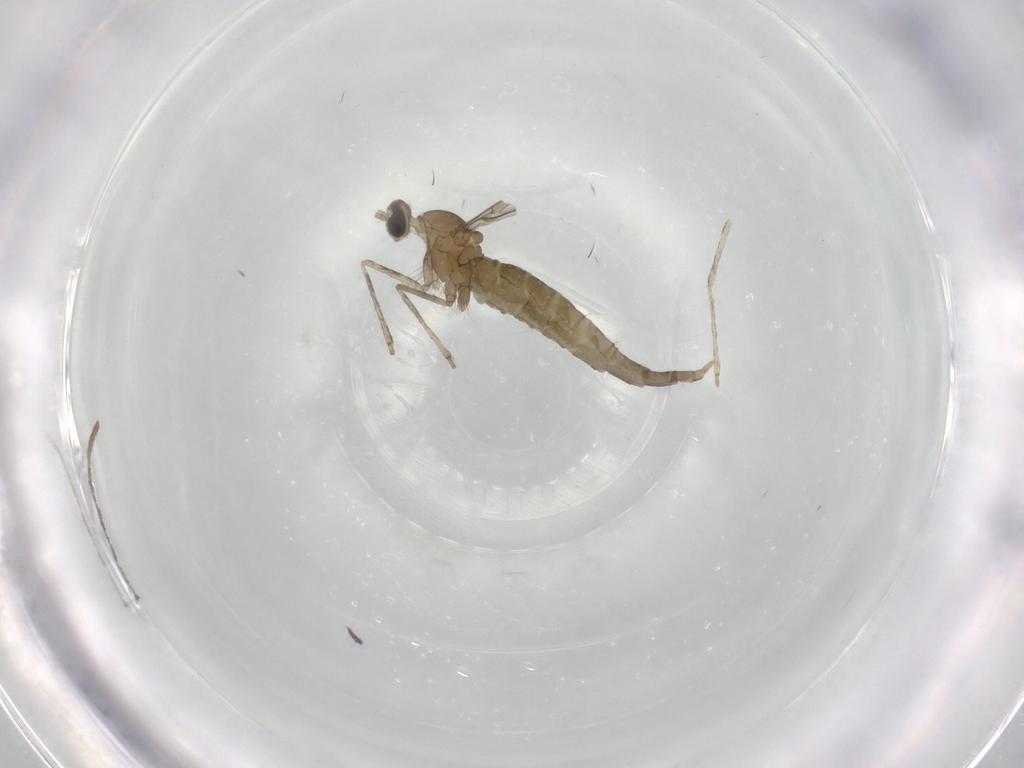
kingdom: Animalia
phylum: Arthropoda
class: Insecta
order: Diptera
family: Chironomidae
